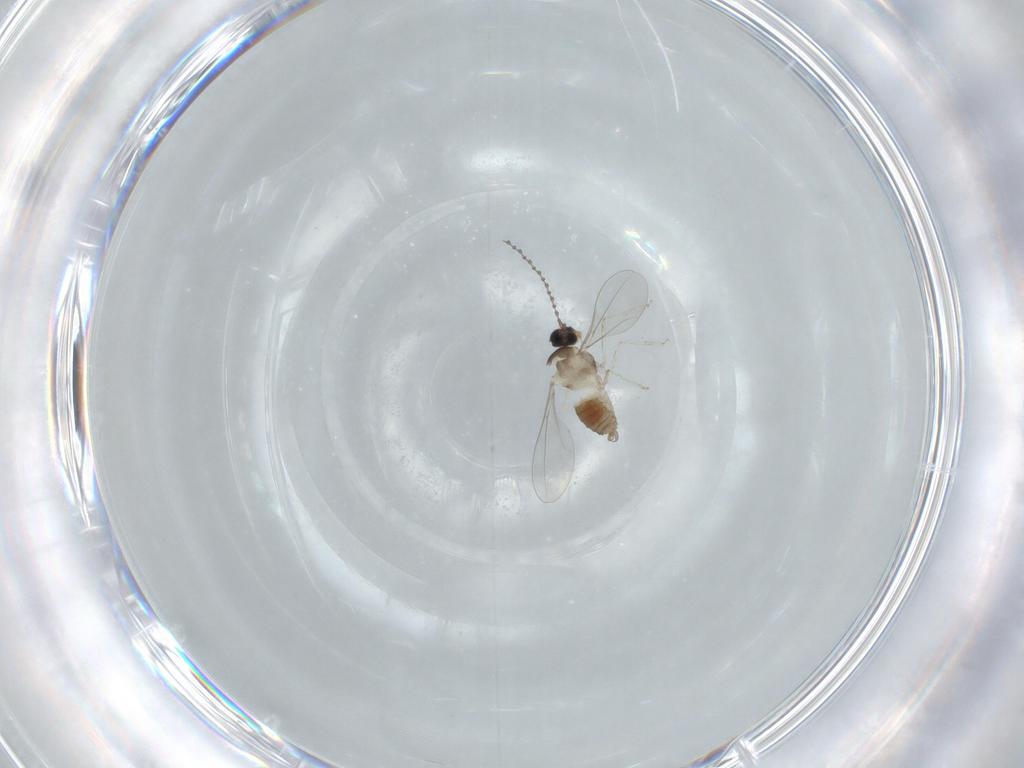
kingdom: Animalia
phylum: Arthropoda
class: Insecta
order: Diptera
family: Cecidomyiidae
